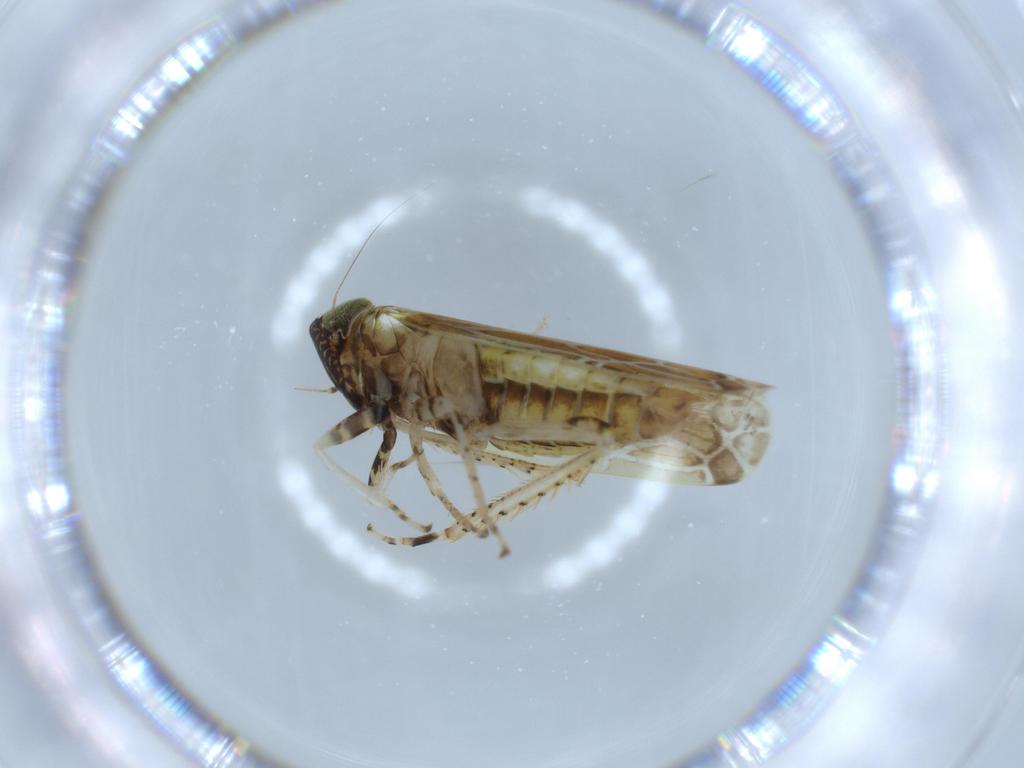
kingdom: Animalia
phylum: Arthropoda
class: Insecta
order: Hemiptera
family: Cicadellidae
